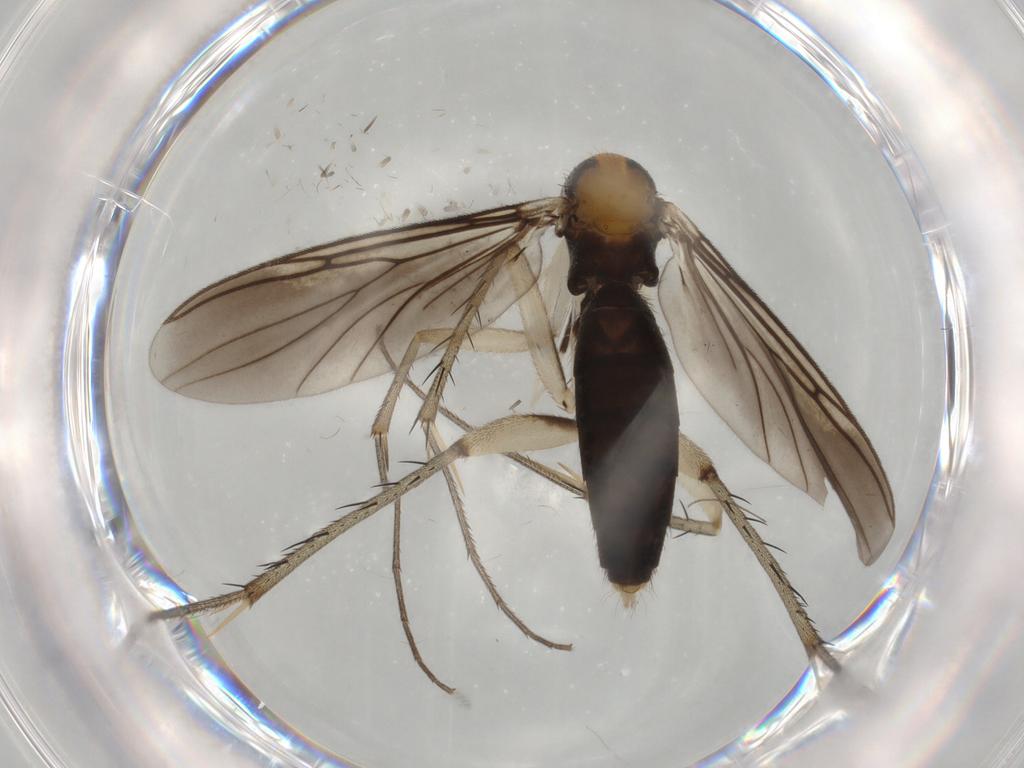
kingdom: Animalia
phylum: Arthropoda
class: Insecta
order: Diptera
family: Mycetophilidae
